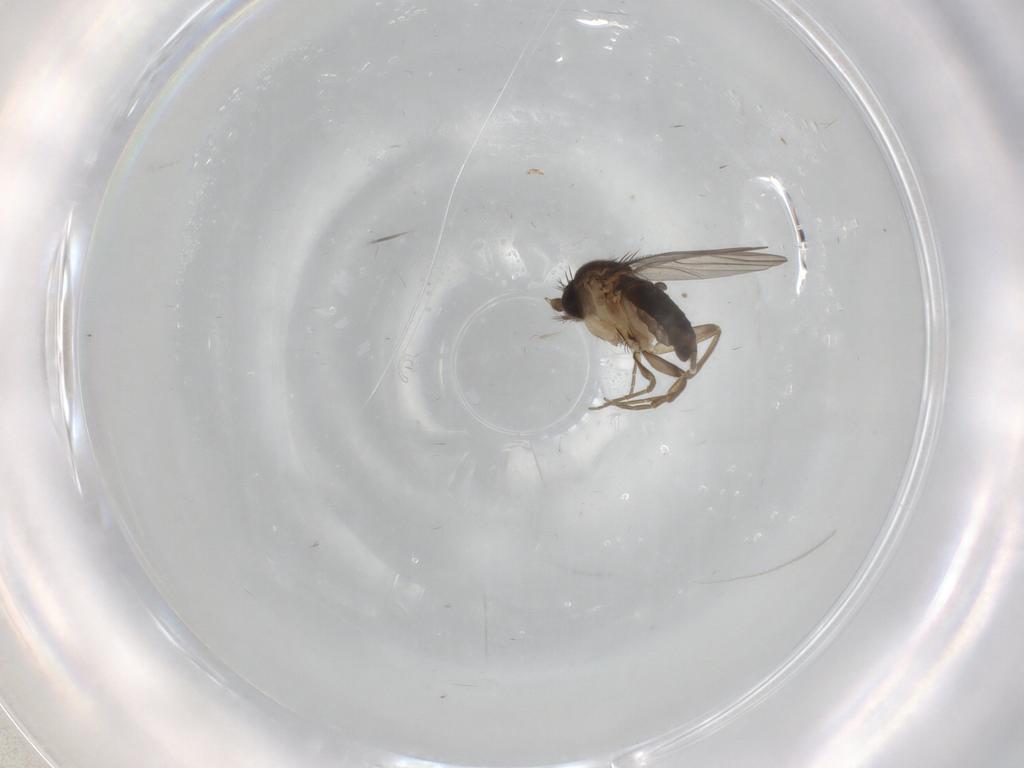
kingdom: Animalia
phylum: Arthropoda
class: Insecta
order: Diptera
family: Phoridae
